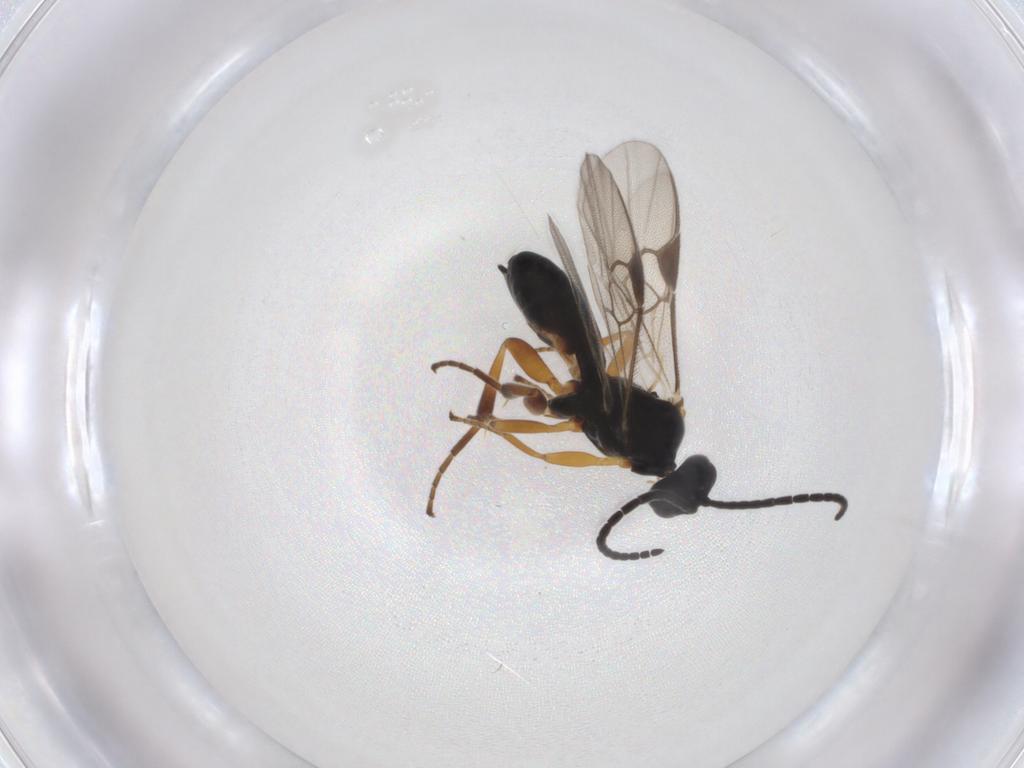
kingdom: Animalia
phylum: Arthropoda
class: Insecta
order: Hymenoptera
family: Braconidae
